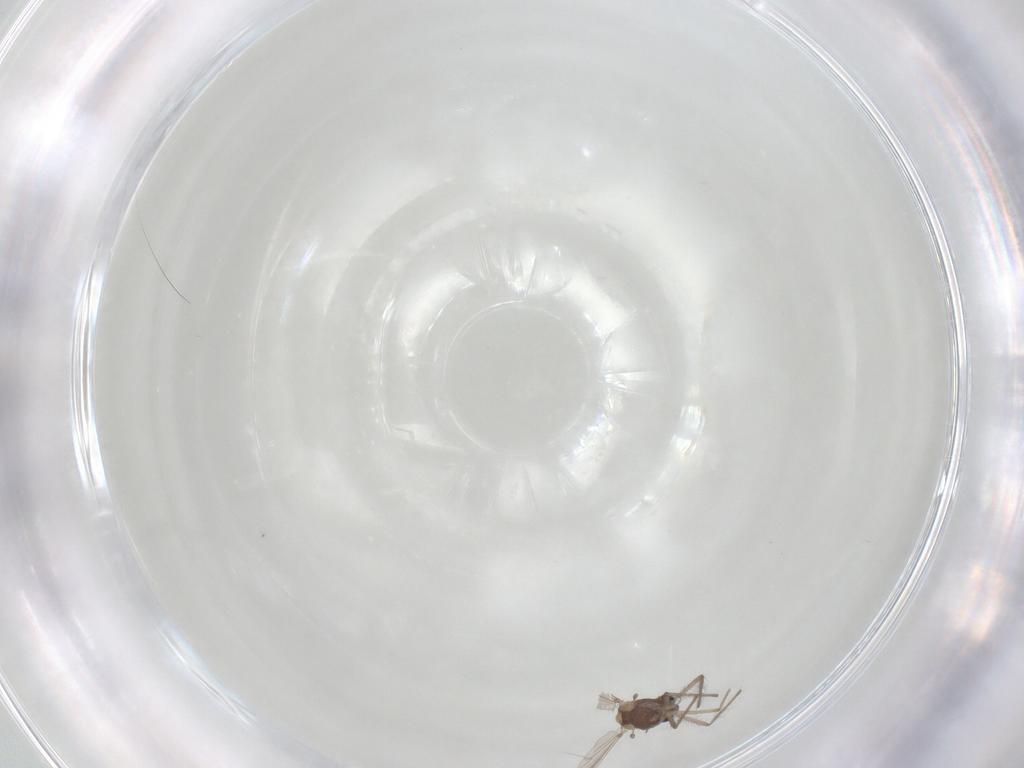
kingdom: Animalia
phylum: Arthropoda
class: Insecta
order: Diptera
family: Chironomidae
